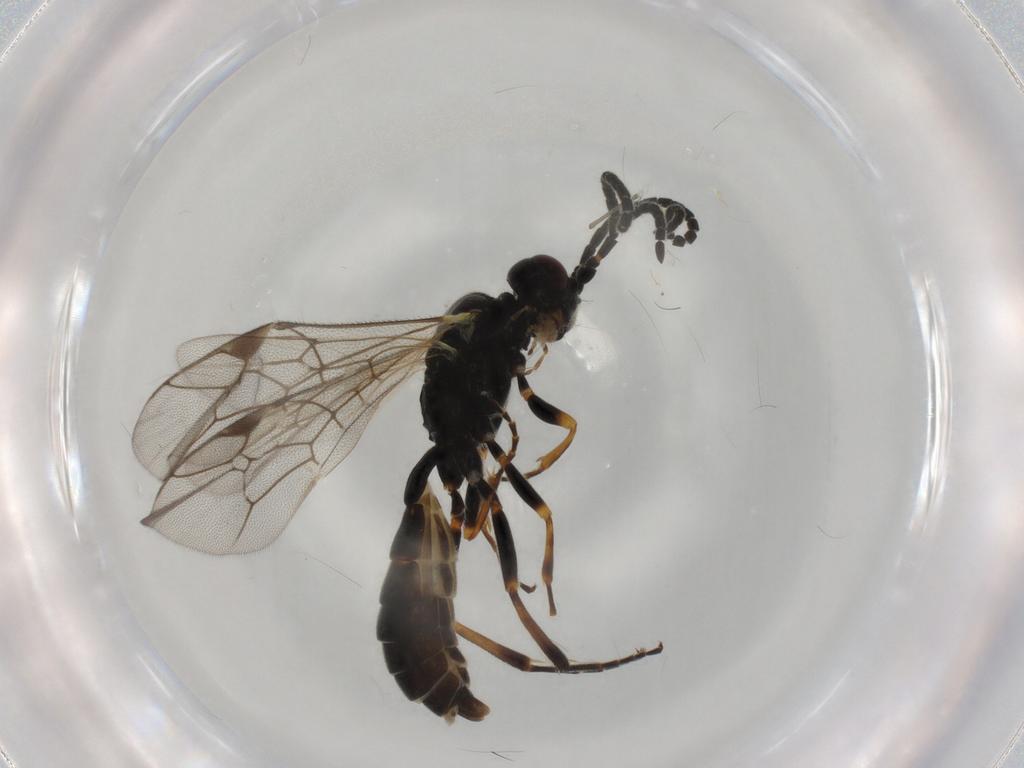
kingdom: Animalia
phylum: Arthropoda
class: Insecta
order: Hymenoptera
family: Ichneumonidae
